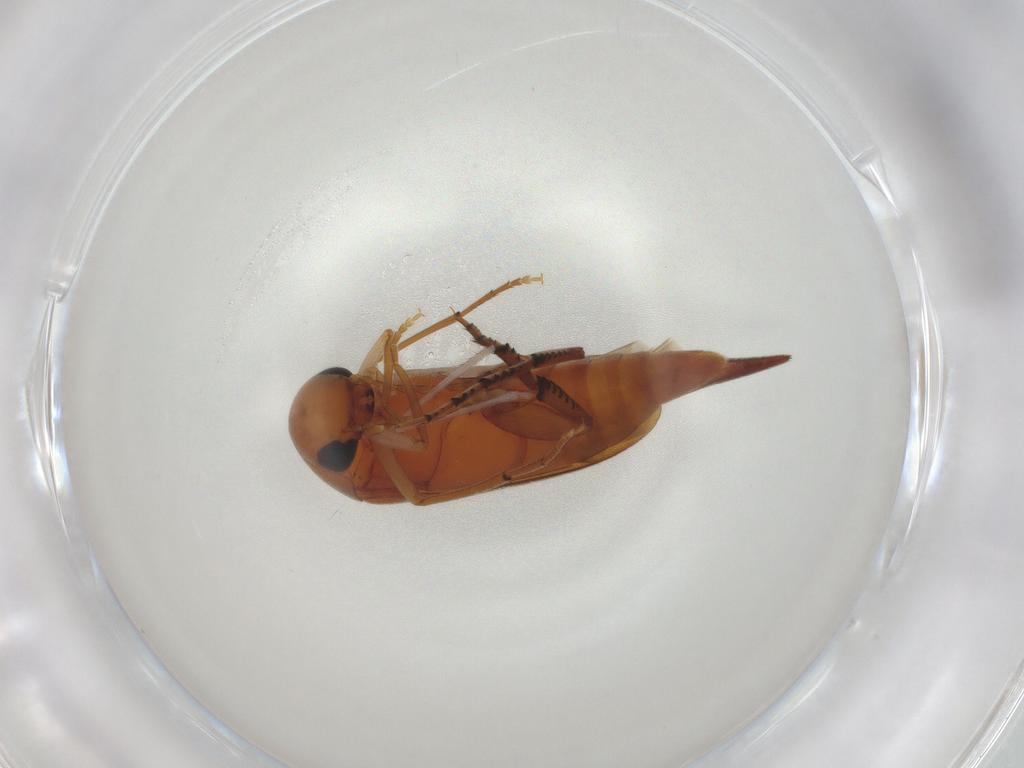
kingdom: Animalia
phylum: Arthropoda
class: Insecta
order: Coleoptera
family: Mordellidae
